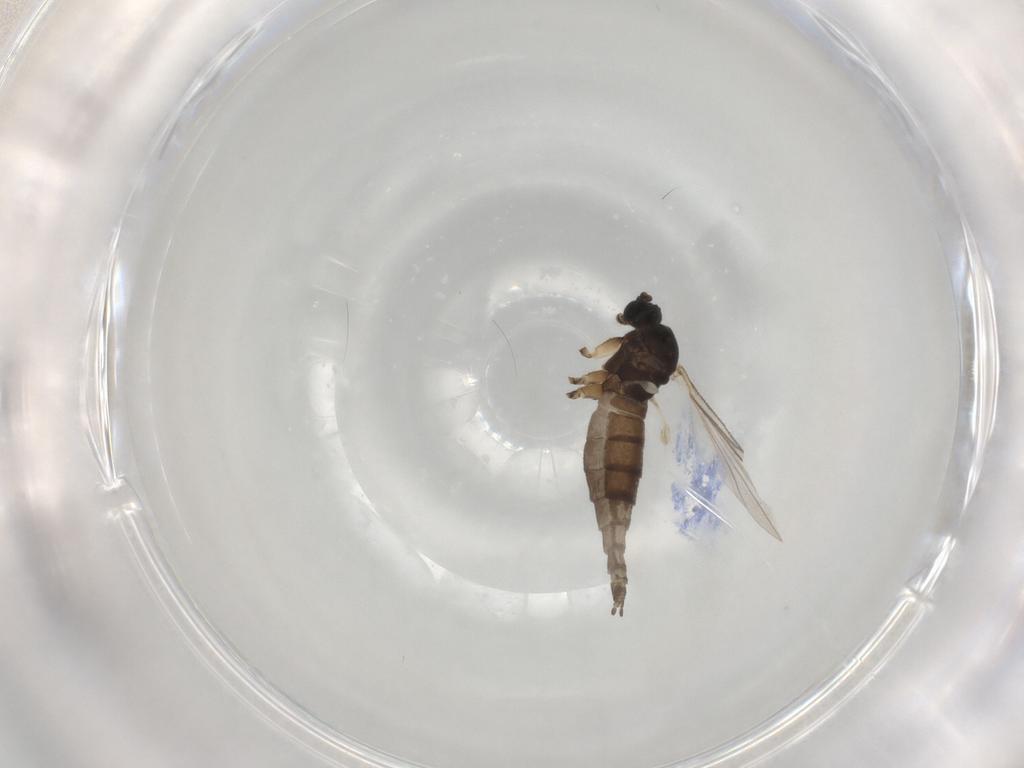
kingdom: Animalia
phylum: Arthropoda
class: Insecta
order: Diptera
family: Sciaridae
